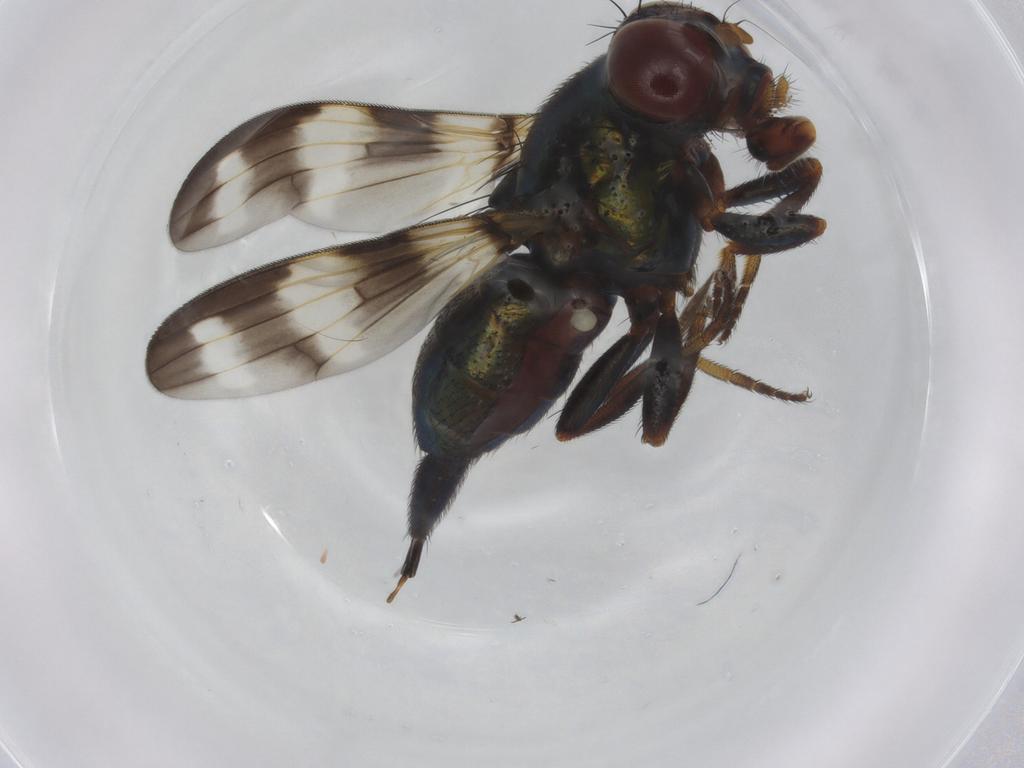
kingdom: Animalia
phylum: Arthropoda
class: Insecta
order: Diptera
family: Ulidiidae
